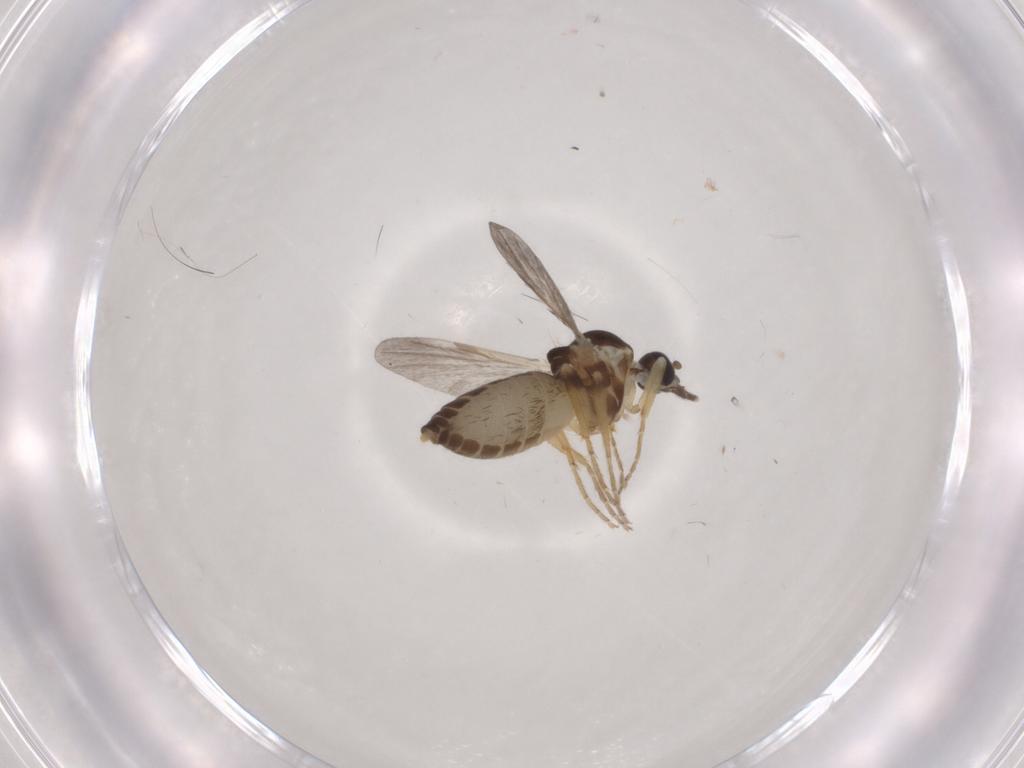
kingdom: Animalia
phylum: Arthropoda
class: Insecta
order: Diptera
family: Ceratopogonidae
